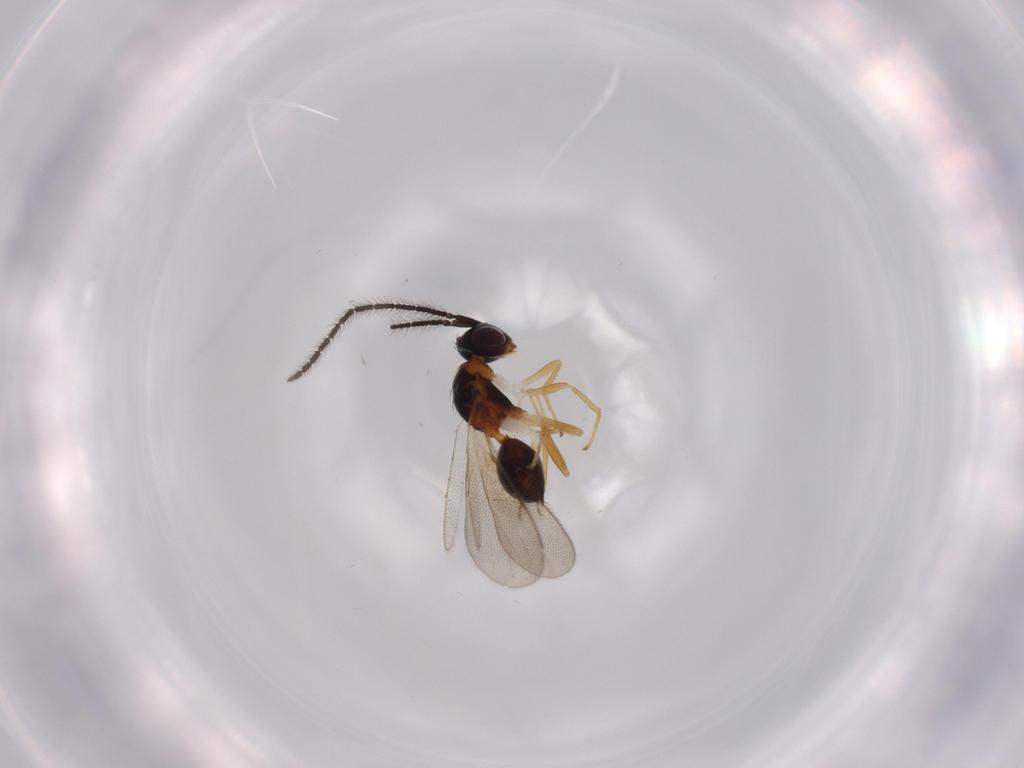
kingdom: Animalia
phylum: Arthropoda
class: Insecta
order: Hymenoptera
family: Diparidae
